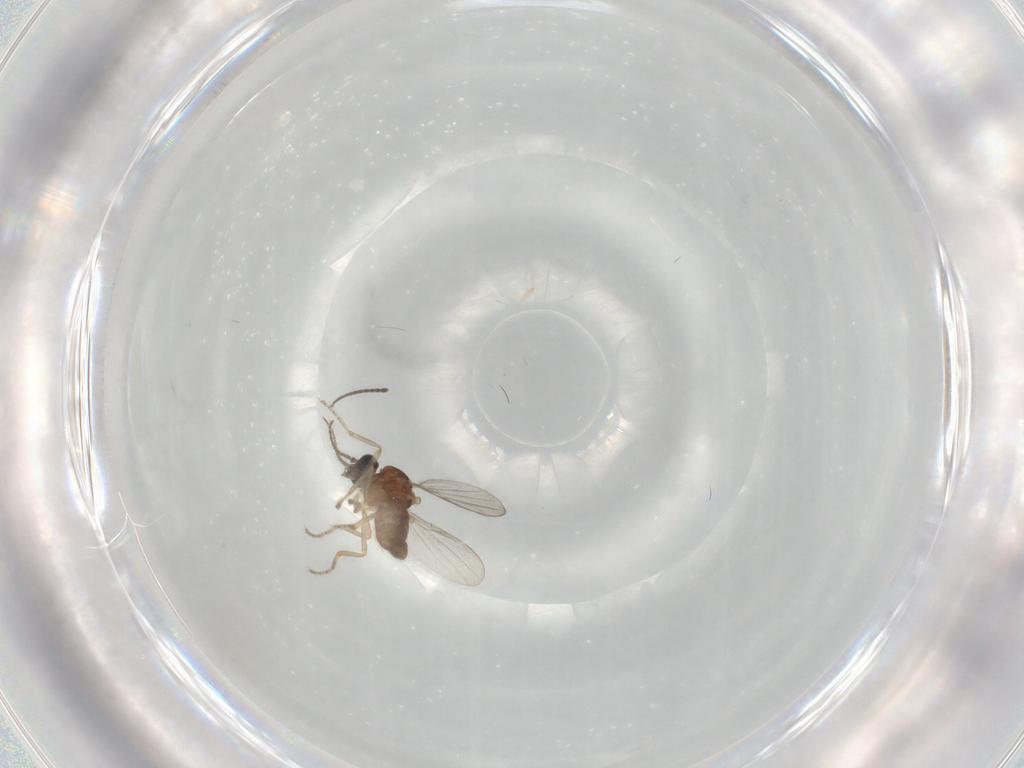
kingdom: Animalia
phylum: Arthropoda
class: Insecta
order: Diptera
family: Ceratopogonidae
